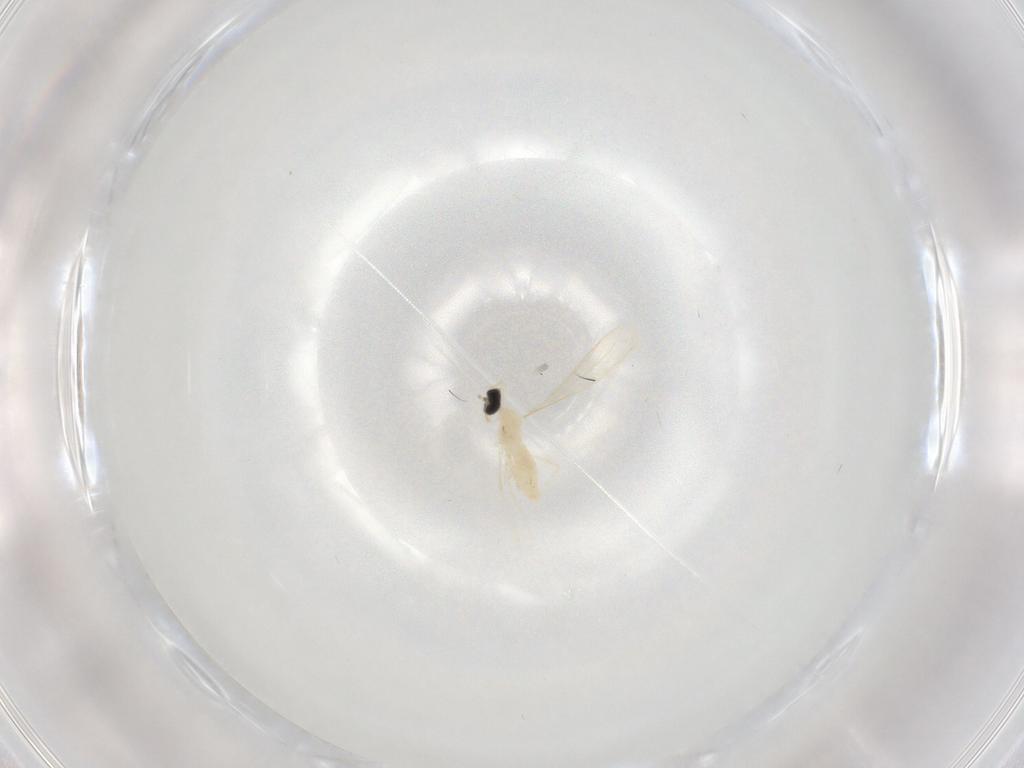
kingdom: Animalia
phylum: Arthropoda
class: Insecta
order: Diptera
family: Cecidomyiidae
